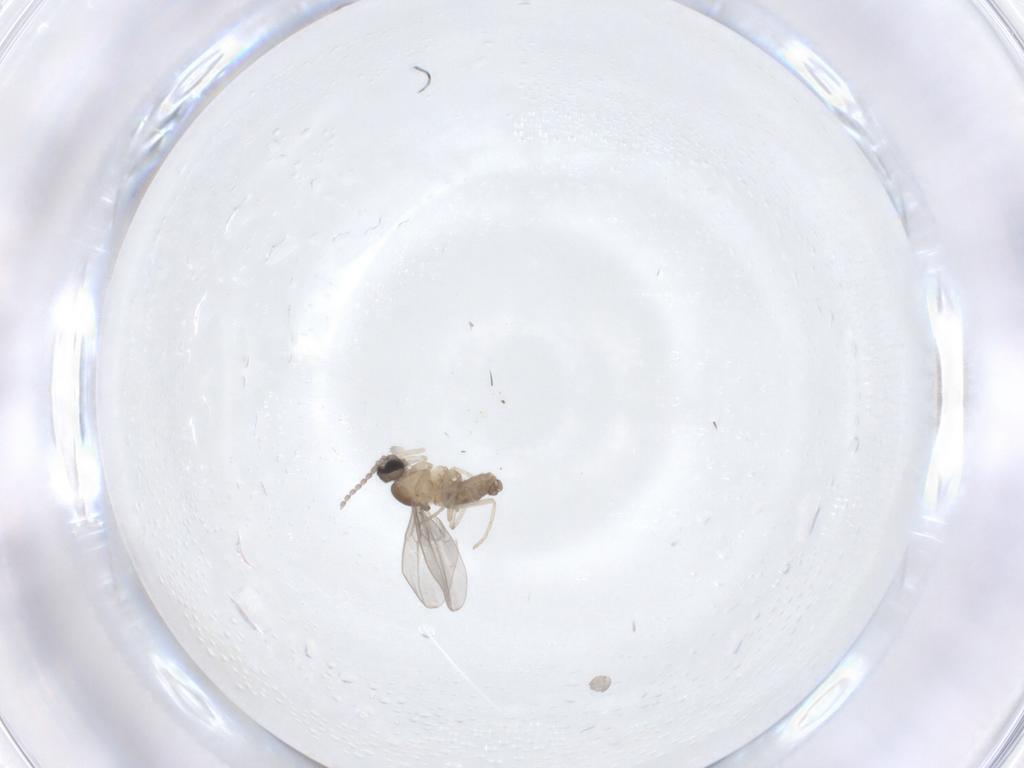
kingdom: Animalia
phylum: Arthropoda
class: Insecta
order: Diptera
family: Cecidomyiidae
